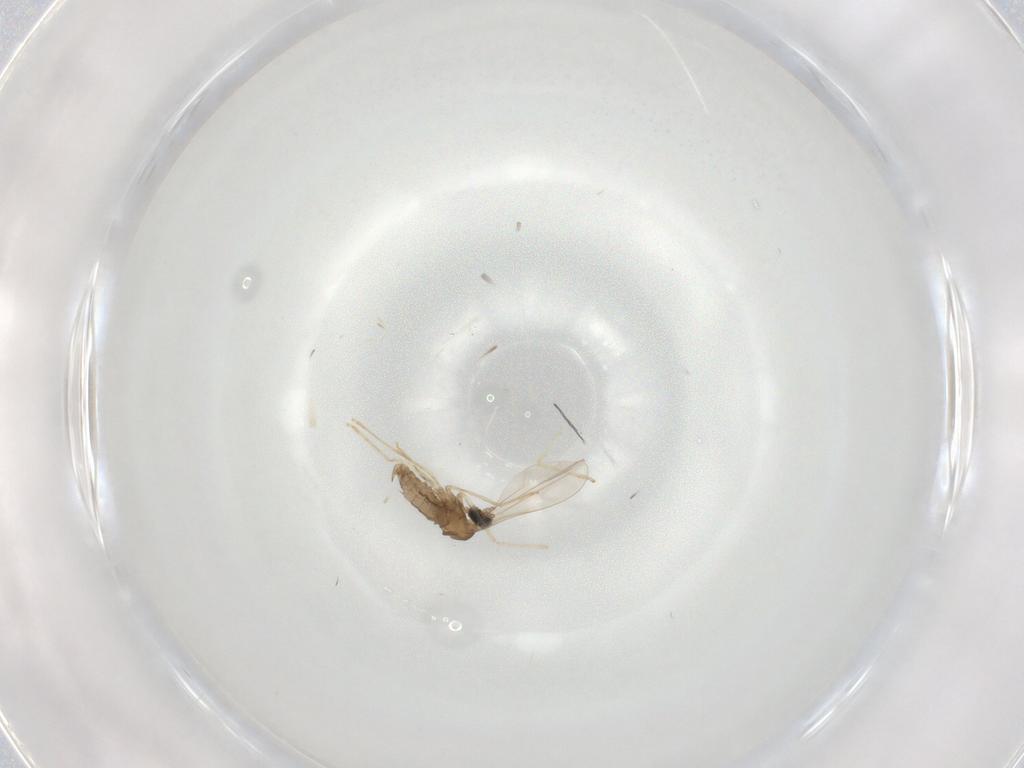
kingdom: Animalia
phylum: Arthropoda
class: Insecta
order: Diptera
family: Cecidomyiidae
